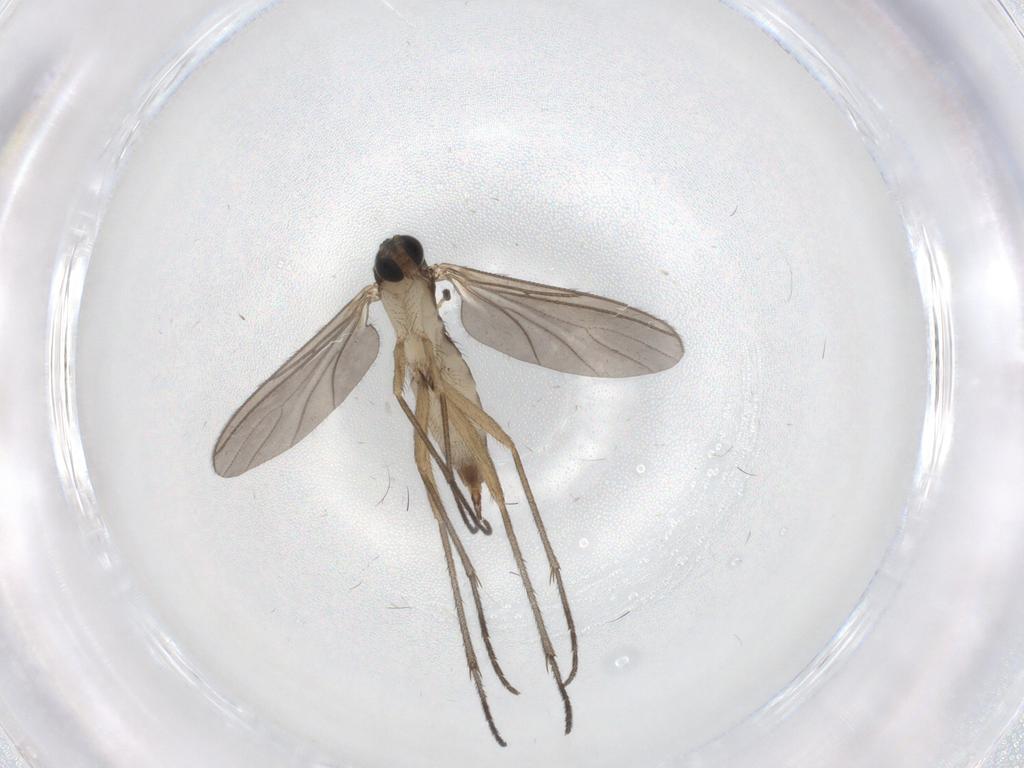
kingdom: Animalia
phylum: Arthropoda
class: Insecta
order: Diptera
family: Sciaridae
